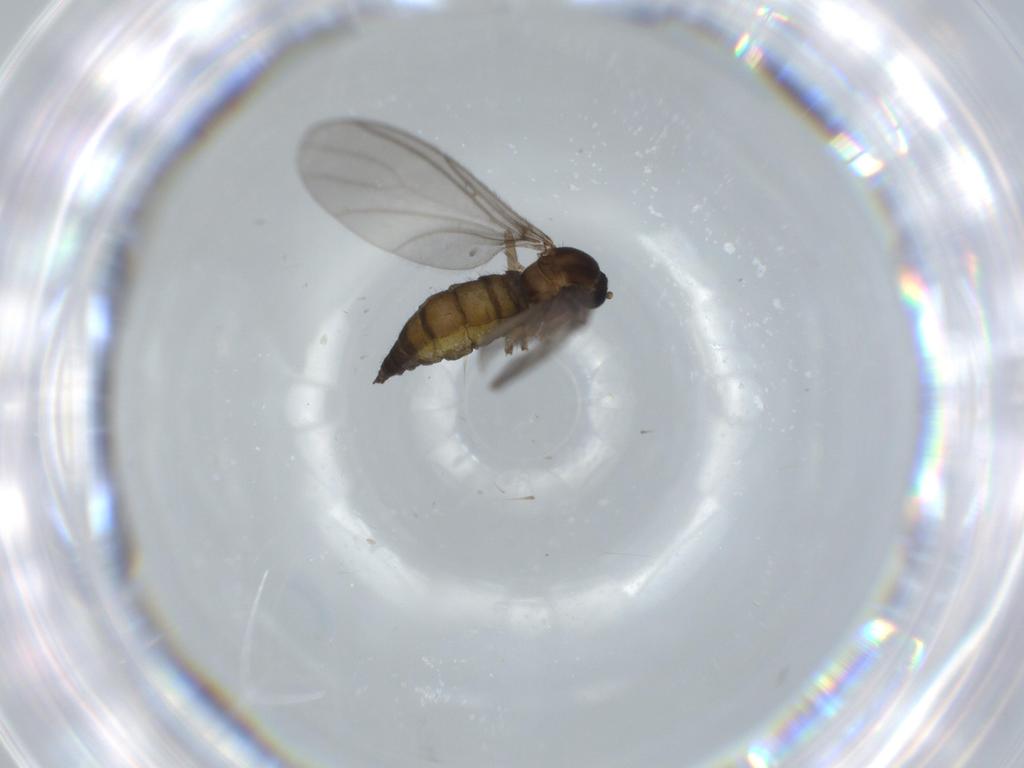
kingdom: Animalia
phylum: Arthropoda
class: Insecta
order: Diptera
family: Sciaridae
